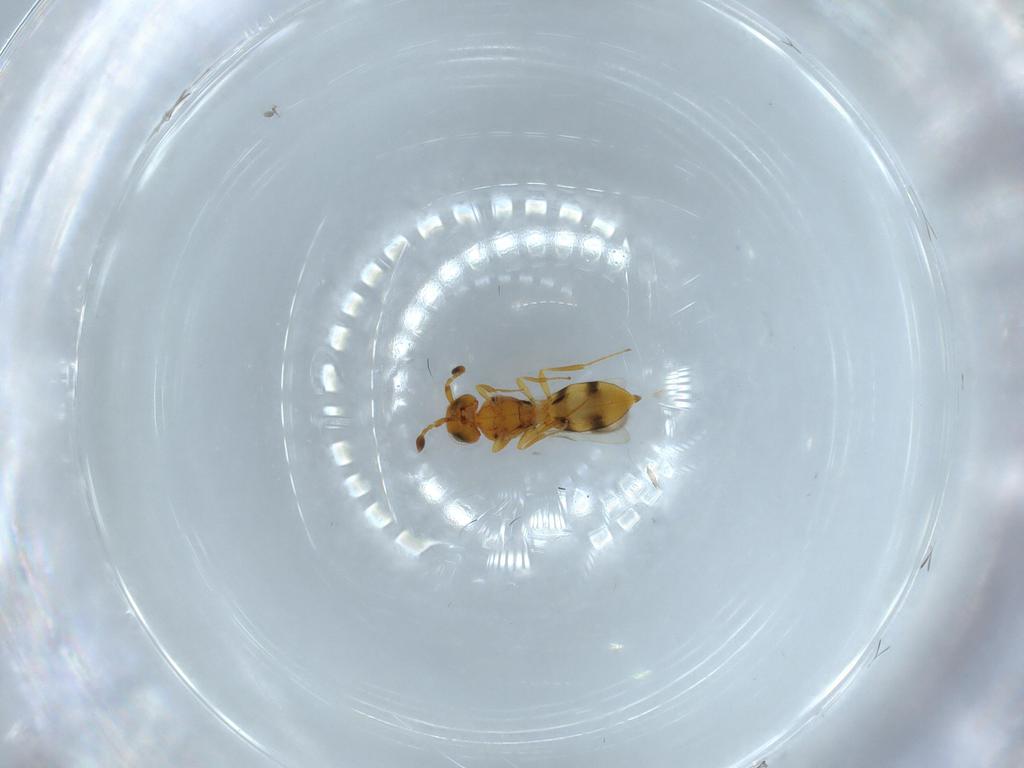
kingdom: Animalia
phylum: Arthropoda
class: Insecta
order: Hymenoptera
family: Scelionidae
